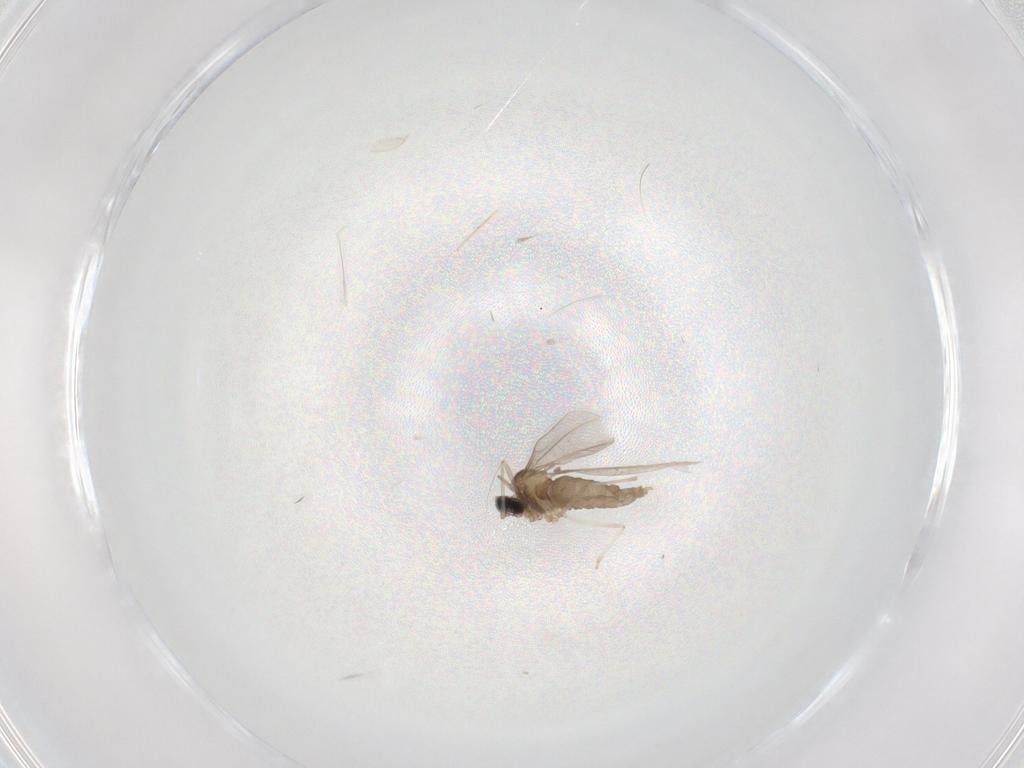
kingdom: Animalia
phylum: Arthropoda
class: Insecta
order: Diptera
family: Cecidomyiidae
